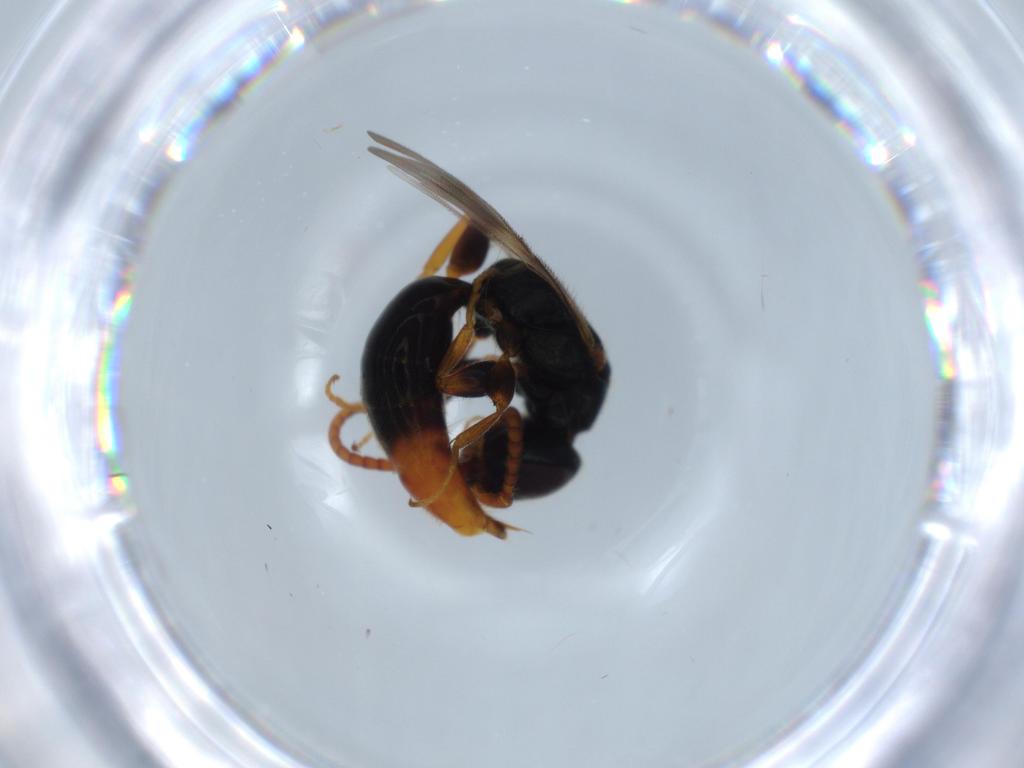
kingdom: Animalia
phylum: Arthropoda
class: Insecta
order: Hymenoptera
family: Bethylidae
